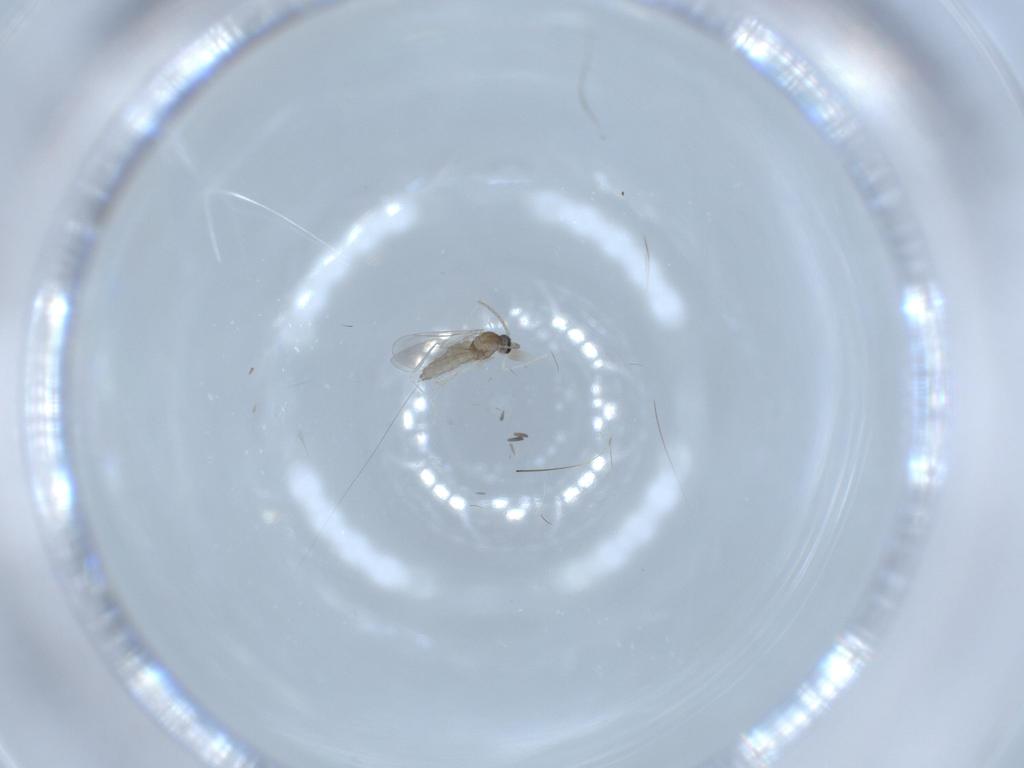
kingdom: Animalia
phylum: Arthropoda
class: Insecta
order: Diptera
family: Cecidomyiidae
